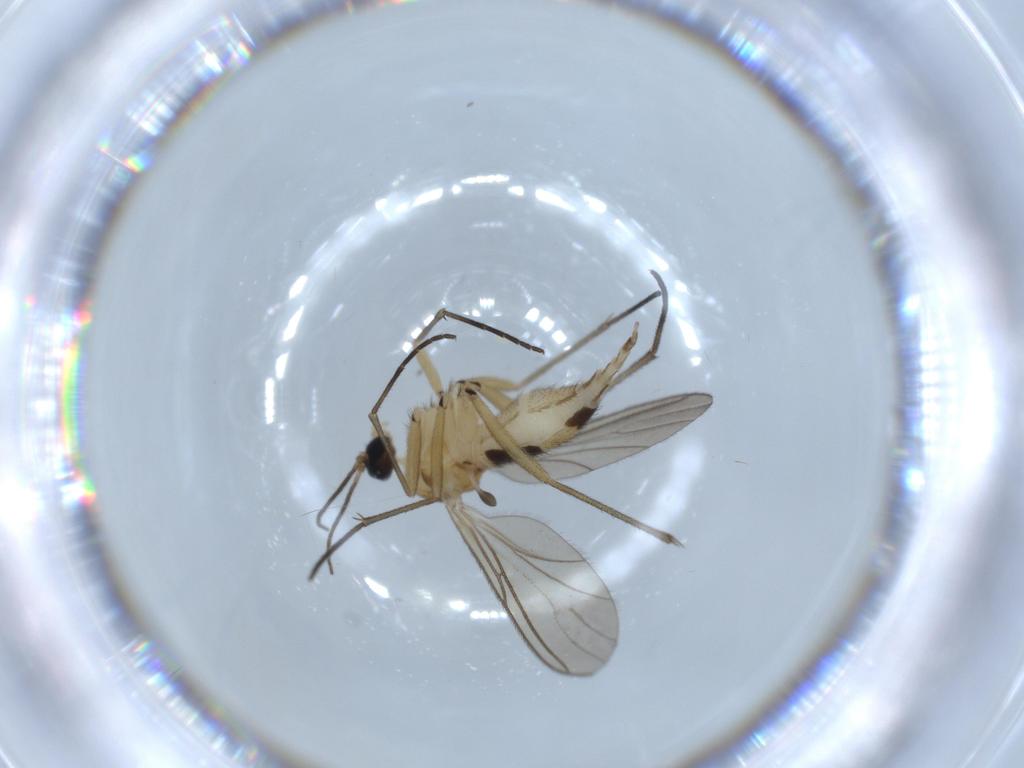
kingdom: Animalia
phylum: Arthropoda
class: Insecta
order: Diptera
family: Sciaridae
